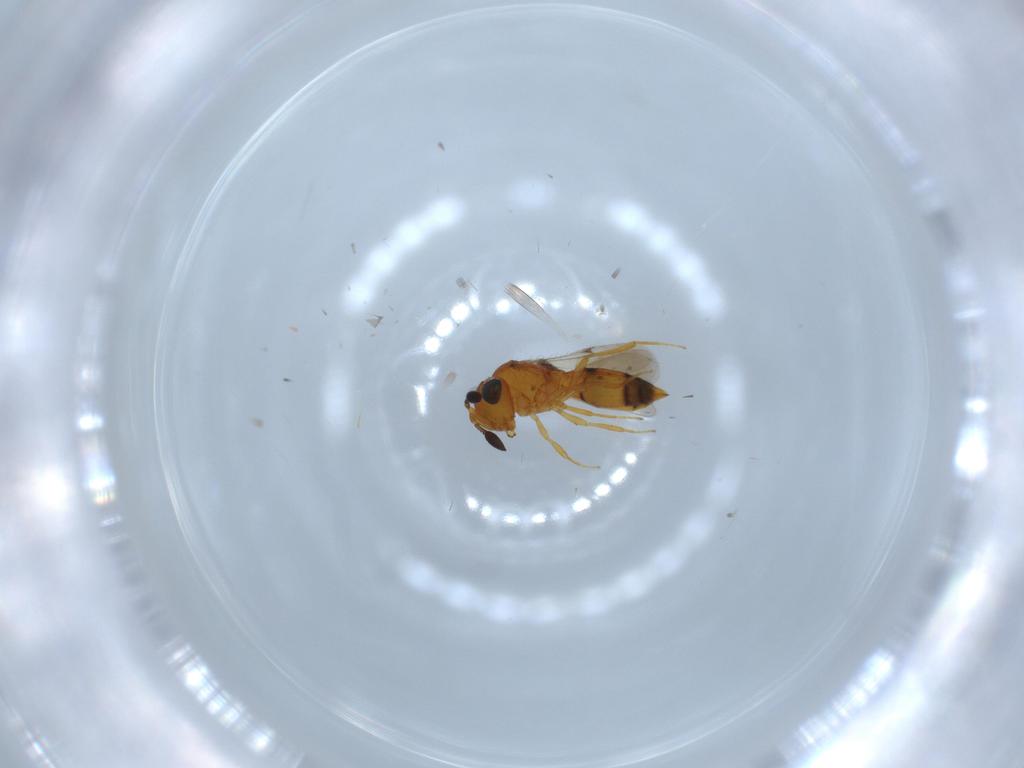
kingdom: Animalia
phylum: Arthropoda
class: Insecta
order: Hymenoptera
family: Scelionidae
